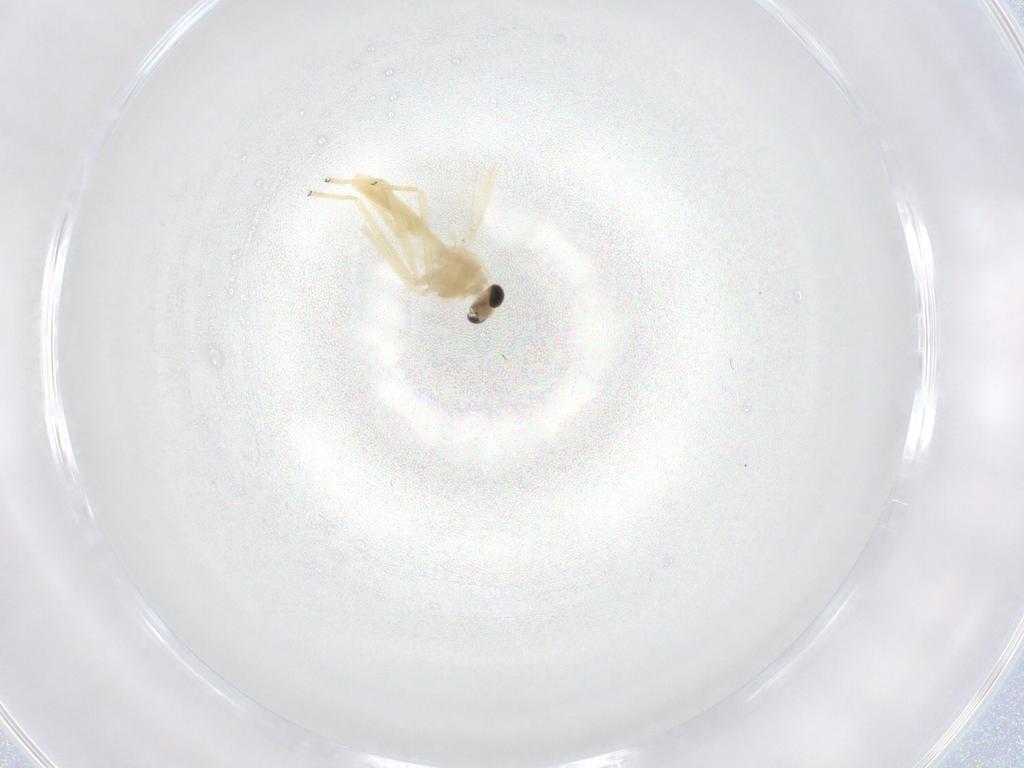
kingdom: Animalia
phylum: Arthropoda
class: Insecta
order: Diptera
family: Chironomidae
